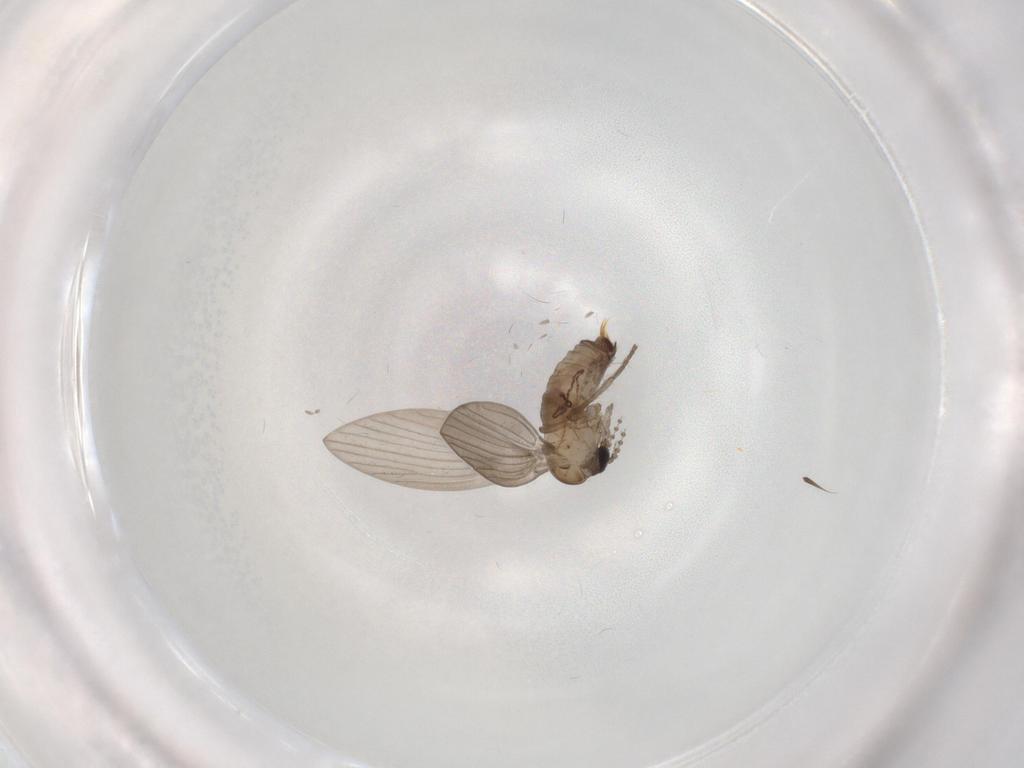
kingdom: Animalia
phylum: Arthropoda
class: Insecta
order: Diptera
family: Psychodidae
